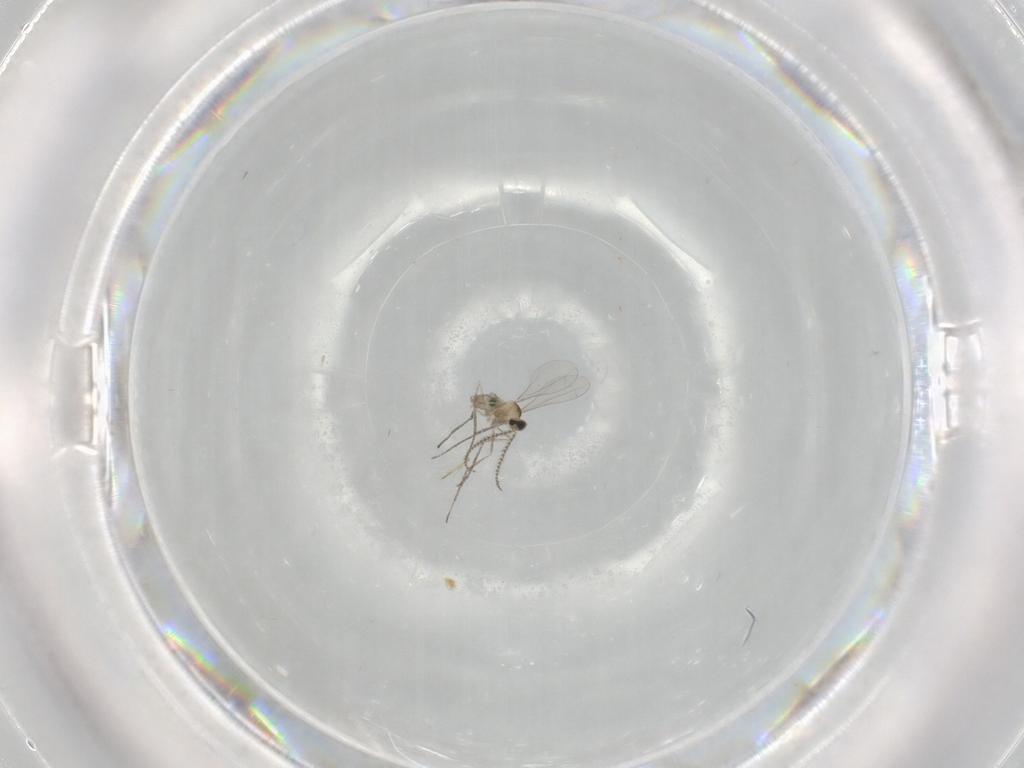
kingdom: Animalia
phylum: Arthropoda
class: Insecta
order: Diptera
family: Cecidomyiidae
